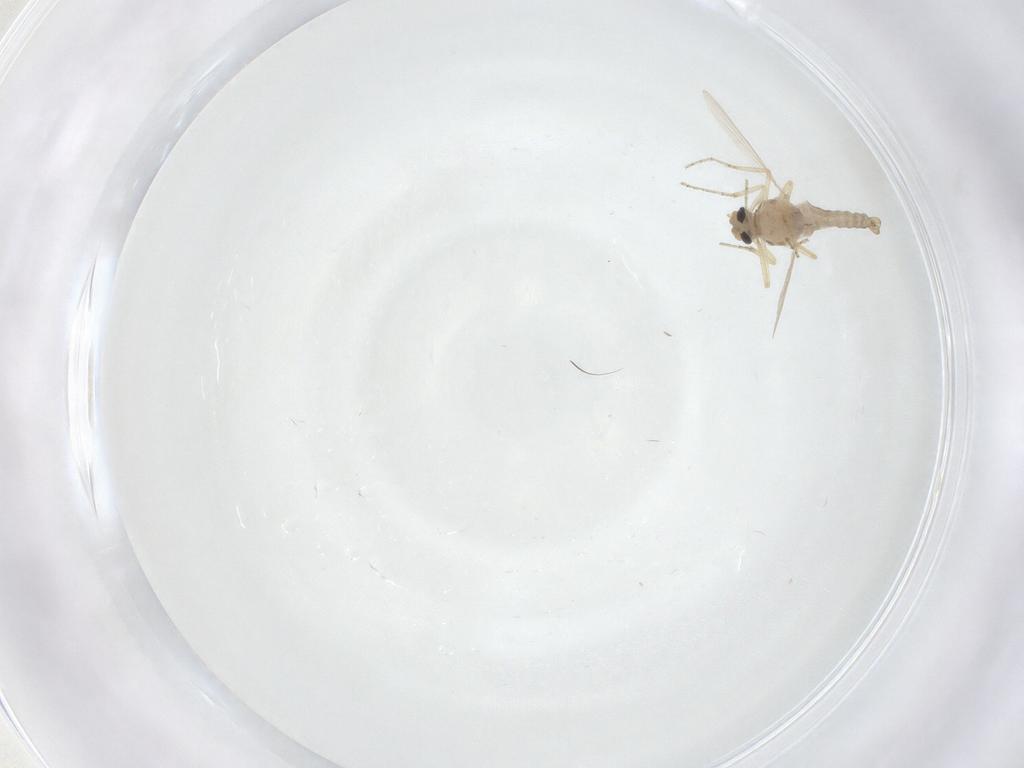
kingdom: Animalia
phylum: Arthropoda
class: Insecta
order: Diptera
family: Ceratopogonidae
